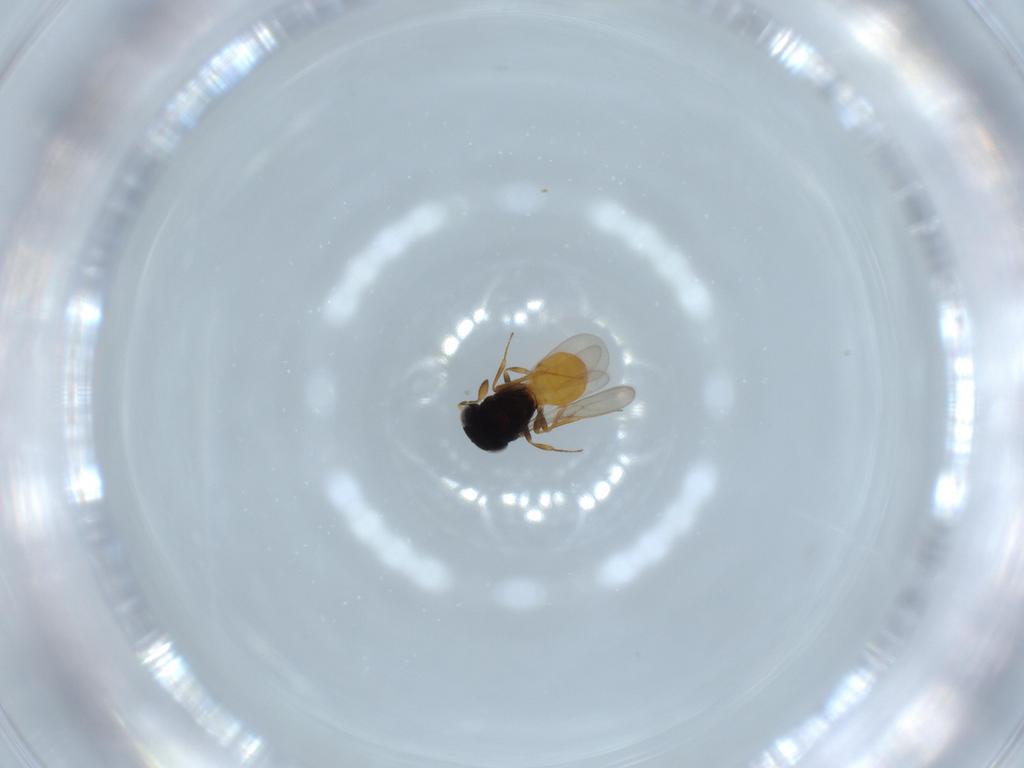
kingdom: Animalia
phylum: Arthropoda
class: Insecta
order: Hymenoptera
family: Scelionidae
